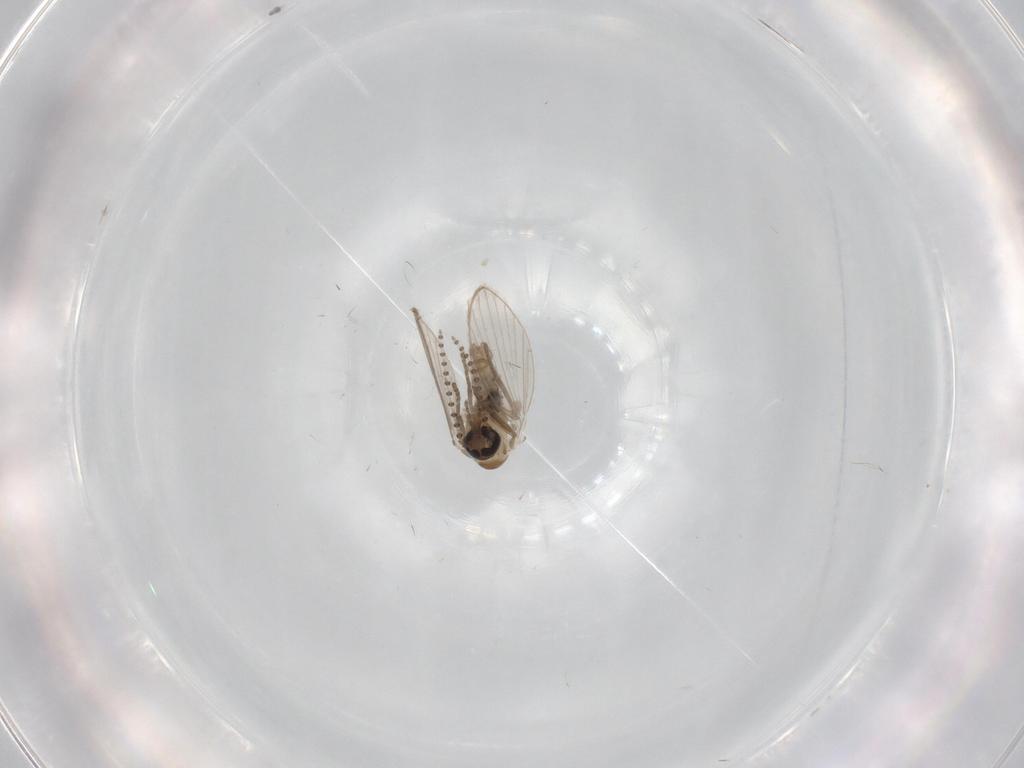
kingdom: Animalia
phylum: Arthropoda
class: Insecta
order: Diptera
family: Psychodidae
